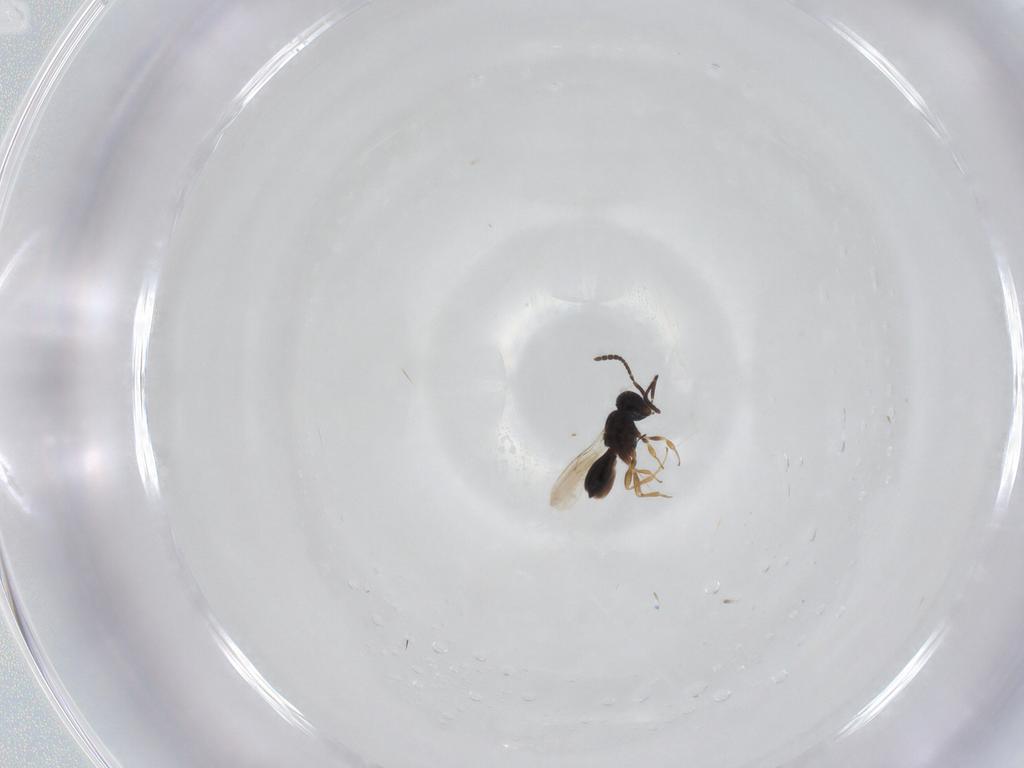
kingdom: Animalia
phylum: Arthropoda
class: Insecta
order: Hymenoptera
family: Scelionidae
